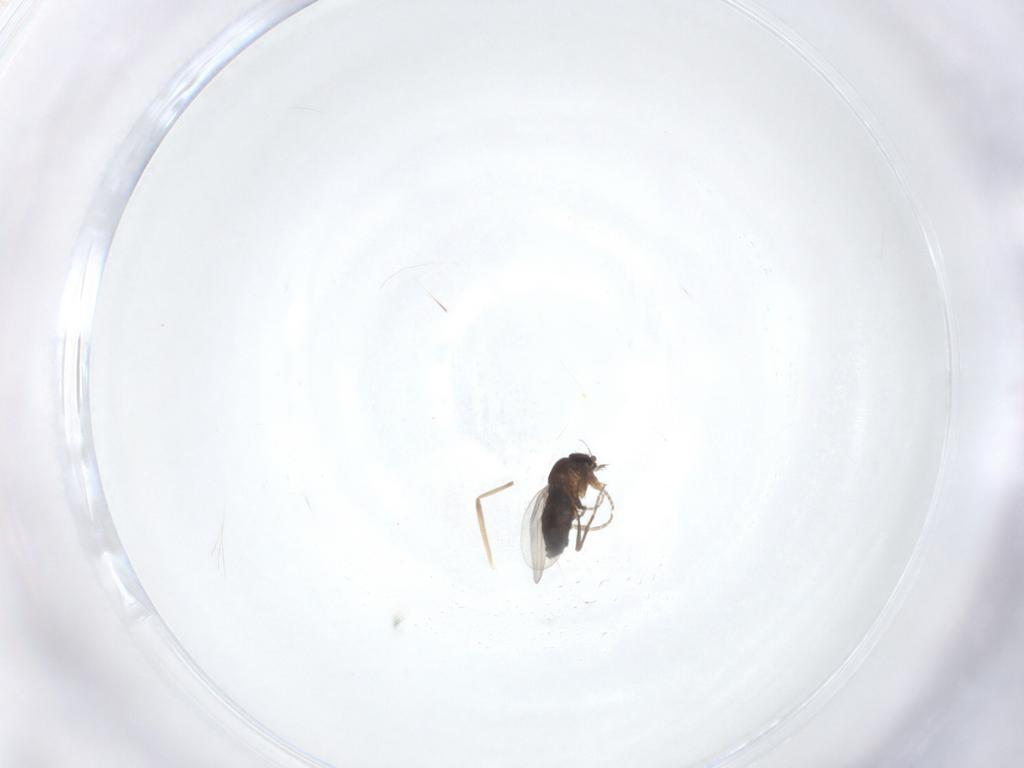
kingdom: Animalia
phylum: Arthropoda
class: Insecta
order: Diptera
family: Phoridae
